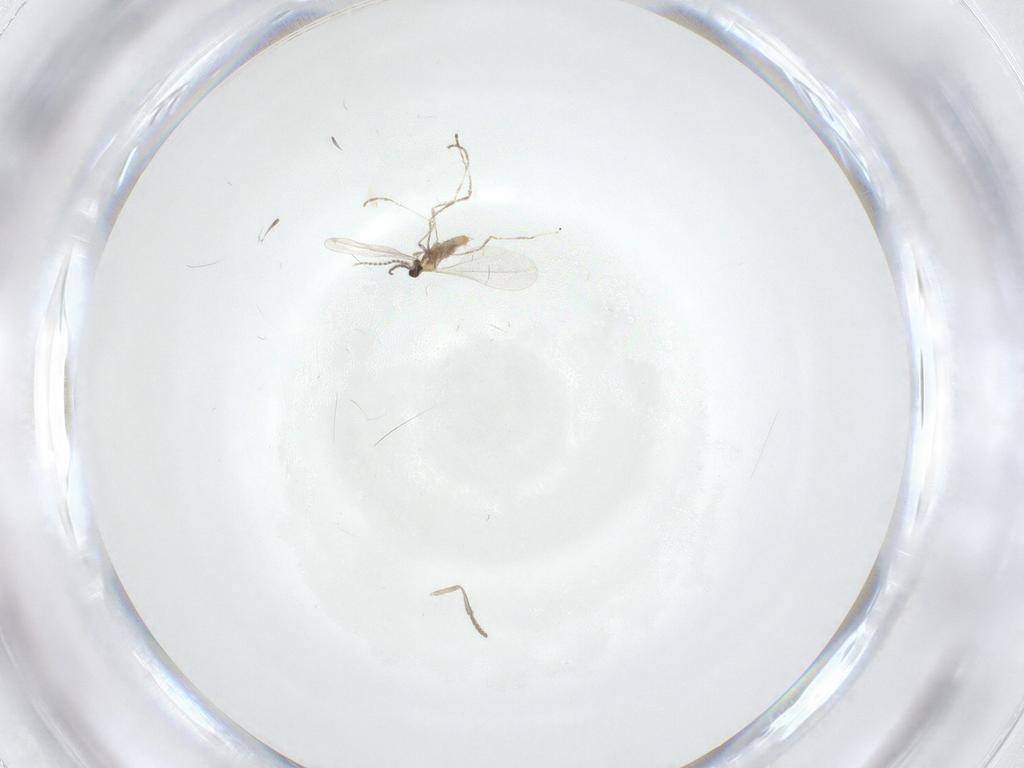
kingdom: Animalia
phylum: Arthropoda
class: Insecta
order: Diptera
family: Cecidomyiidae
